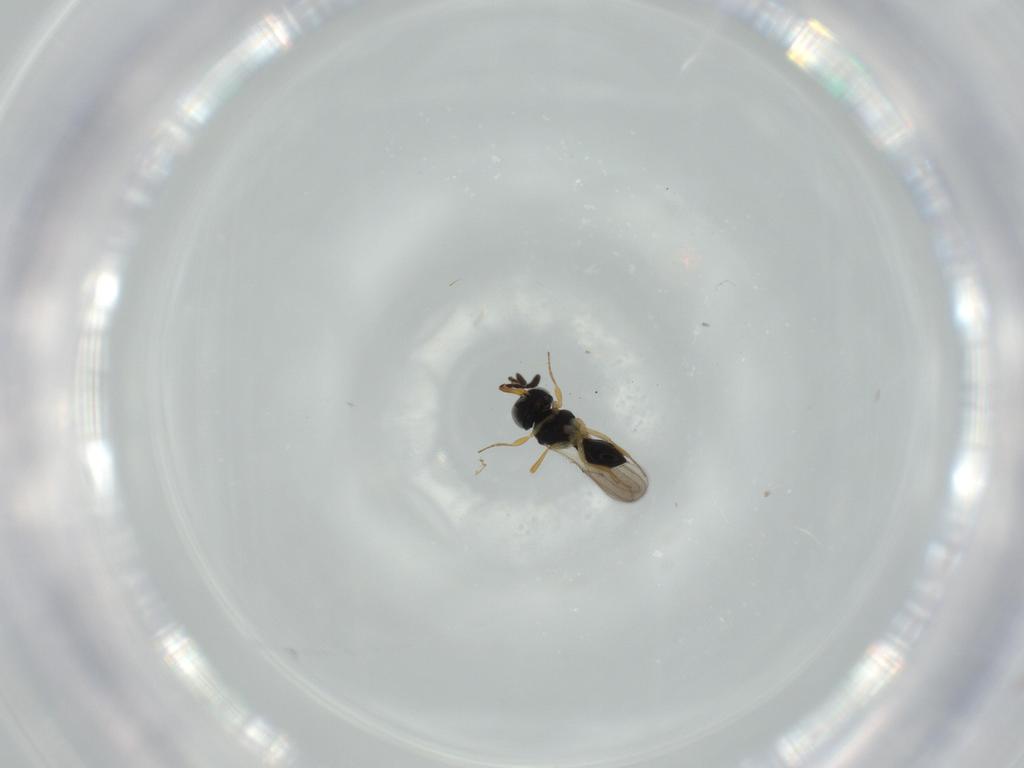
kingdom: Animalia
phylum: Arthropoda
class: Insecta
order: Hymenoptera
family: Scelionidae
